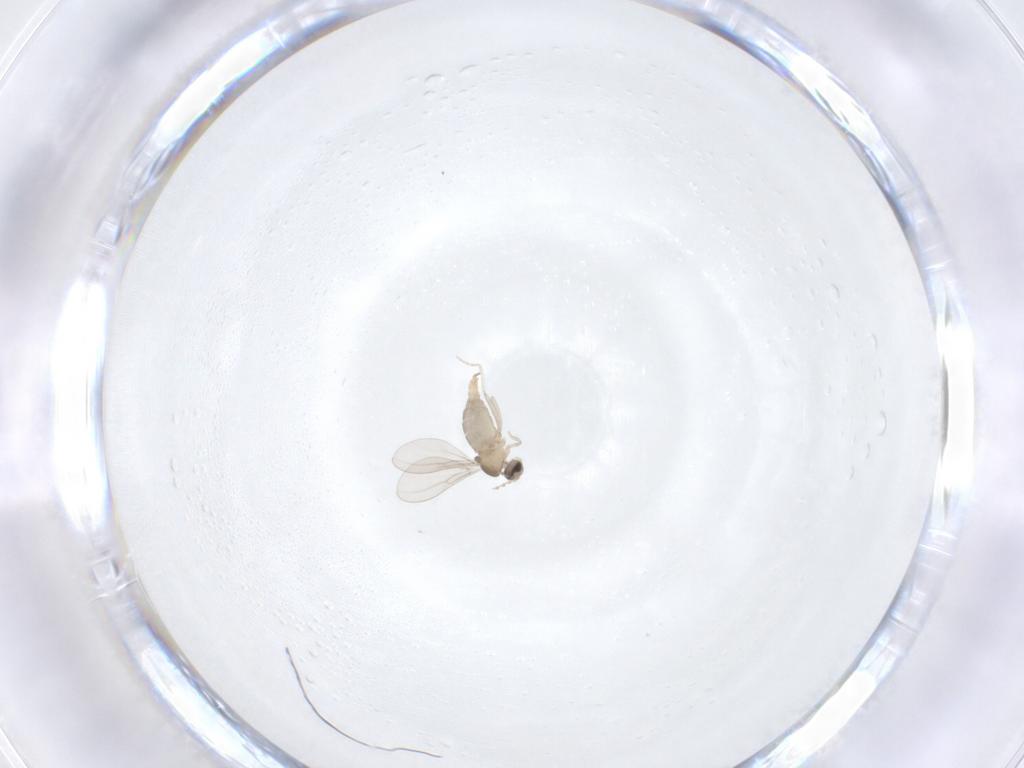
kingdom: Animalia
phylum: Arthropoda
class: Insecta
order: Diptera
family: Cecidomyiidae
